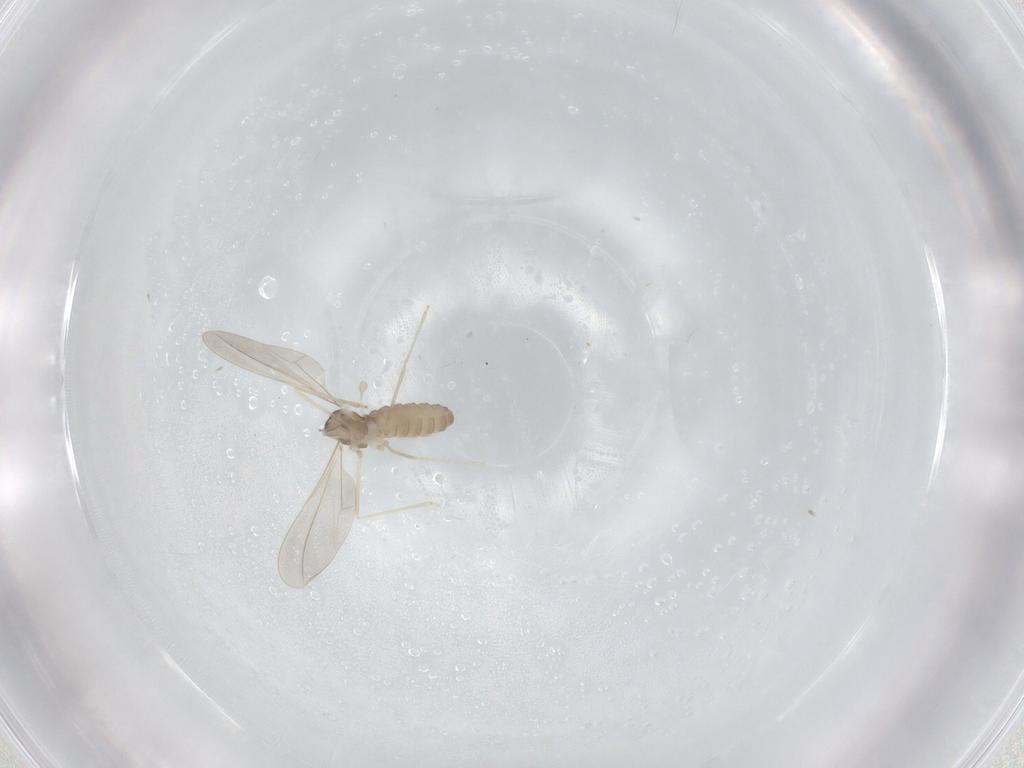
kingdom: Animalia
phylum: Arthropoda
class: Insecta
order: Diptera
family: Cecidomyiidae
